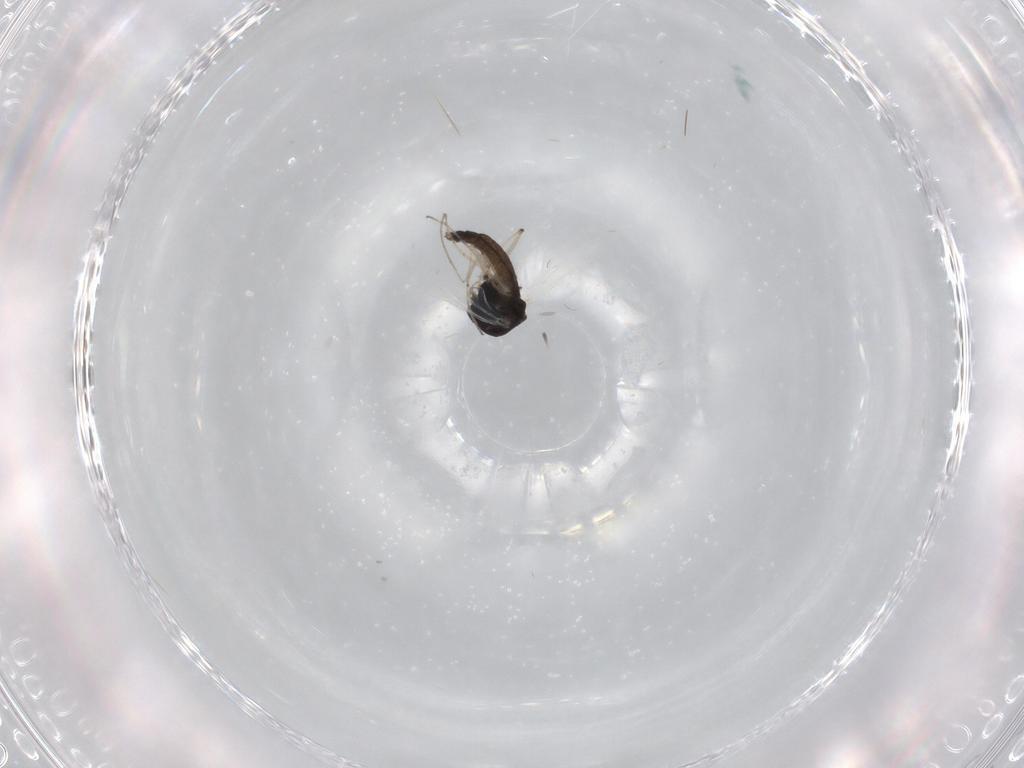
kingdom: Animalia
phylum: Arthropoda
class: Insecta
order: Diptera
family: Chironomidae
